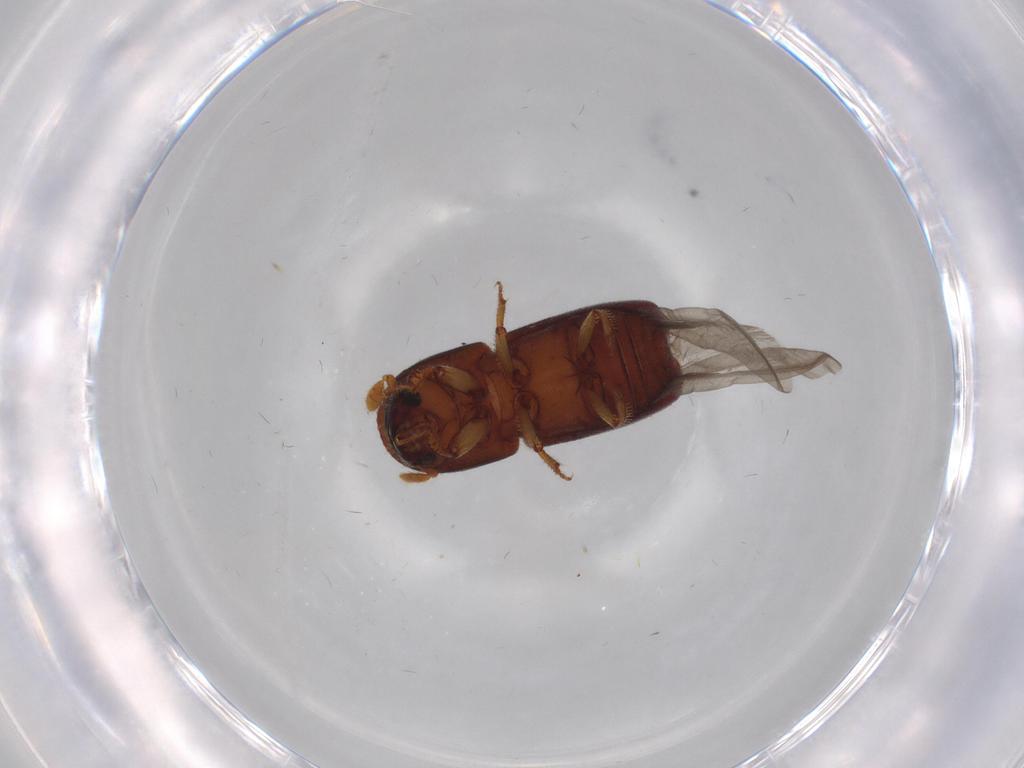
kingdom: Animalia
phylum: Arthropoda
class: Insecta
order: Coleoptera
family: Curculionidae
